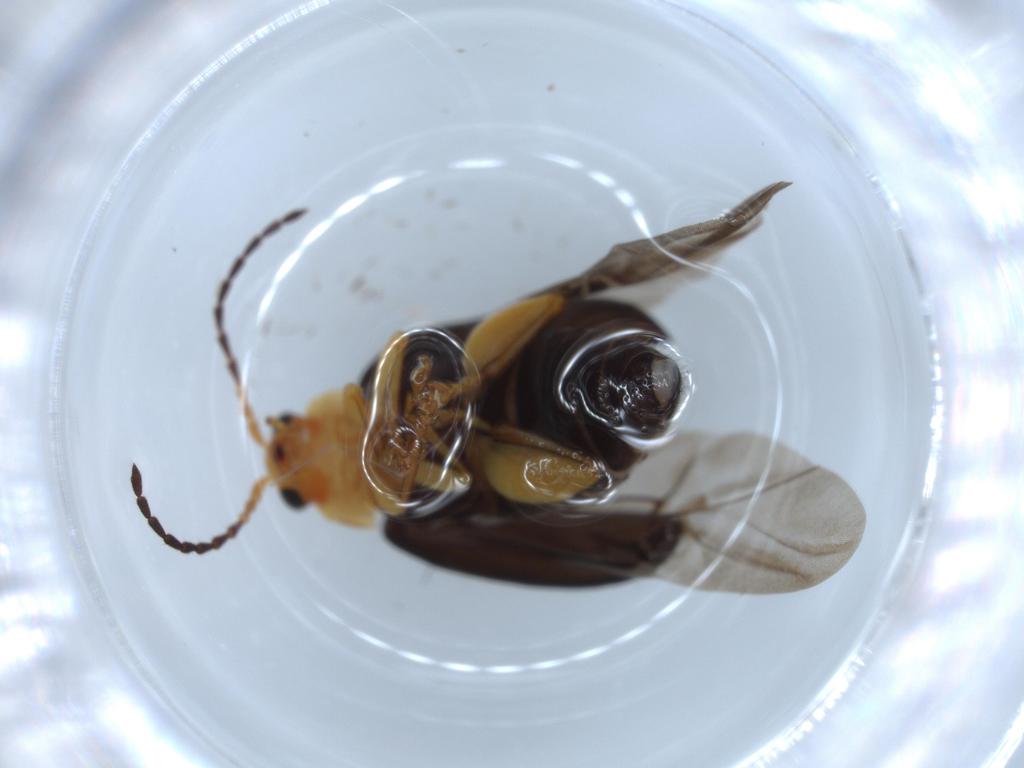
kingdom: Animalia
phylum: Arthropoda
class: Insecta
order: Coleoptera
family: Chrysomelidae
